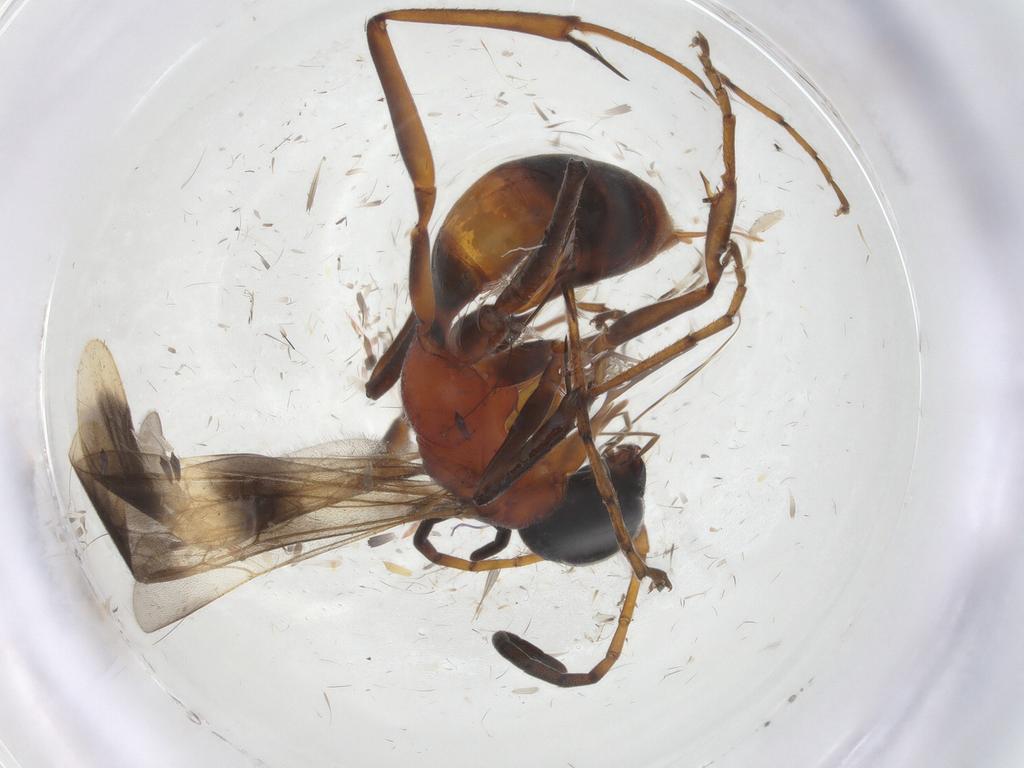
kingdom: Animalia
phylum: Arthropoda
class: Insecta
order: Hymenoptera
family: Pompilidae
